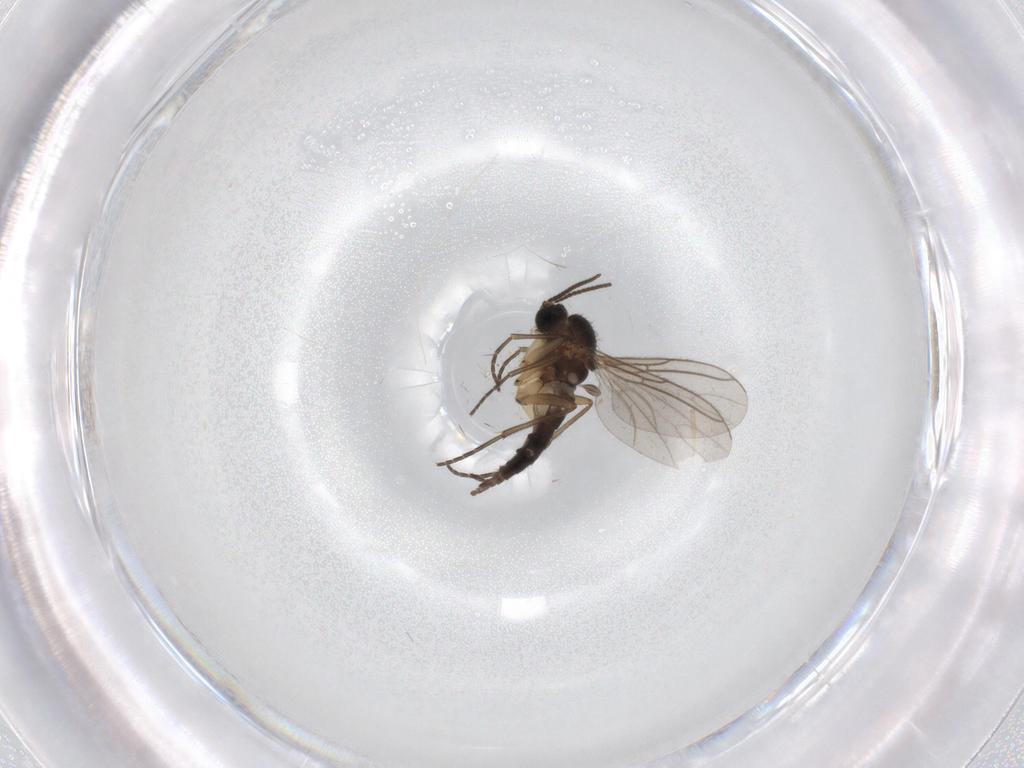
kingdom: Animalia
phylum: Arthropoda
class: Insecta
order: Diptera
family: Sciaridae
